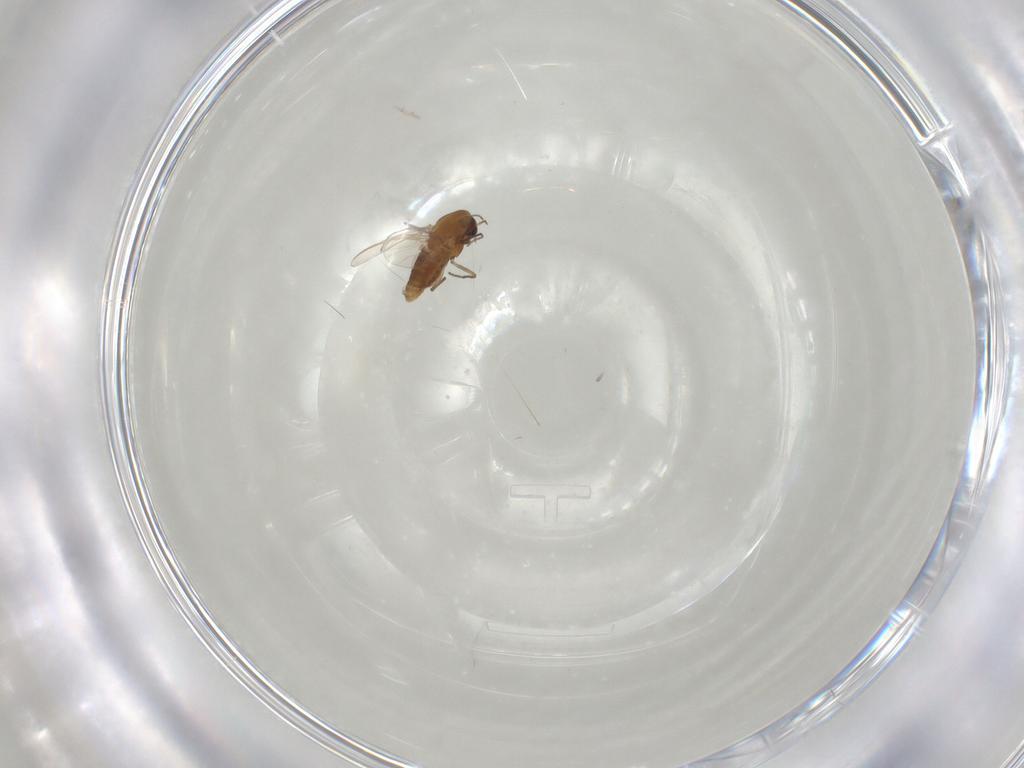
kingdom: Animalia
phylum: Arthropoda
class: Insecta
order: Diptera
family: Chironomidae
